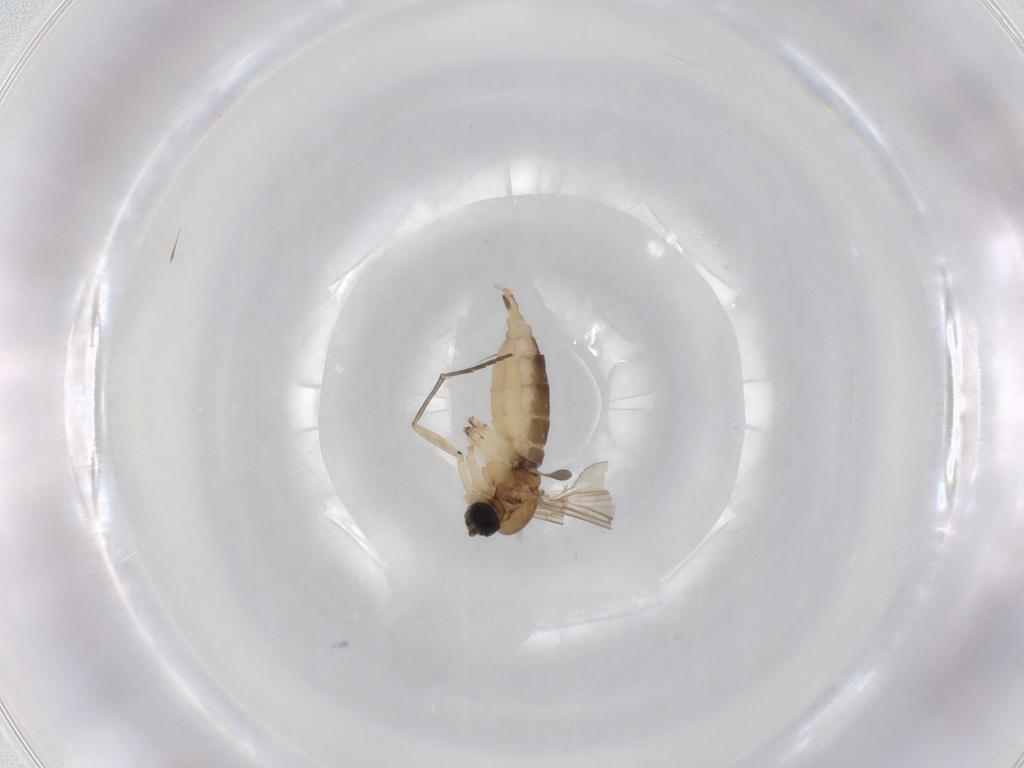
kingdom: Animalia
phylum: Arthropoda
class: Insecta
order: Diptera
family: Sciaridae
